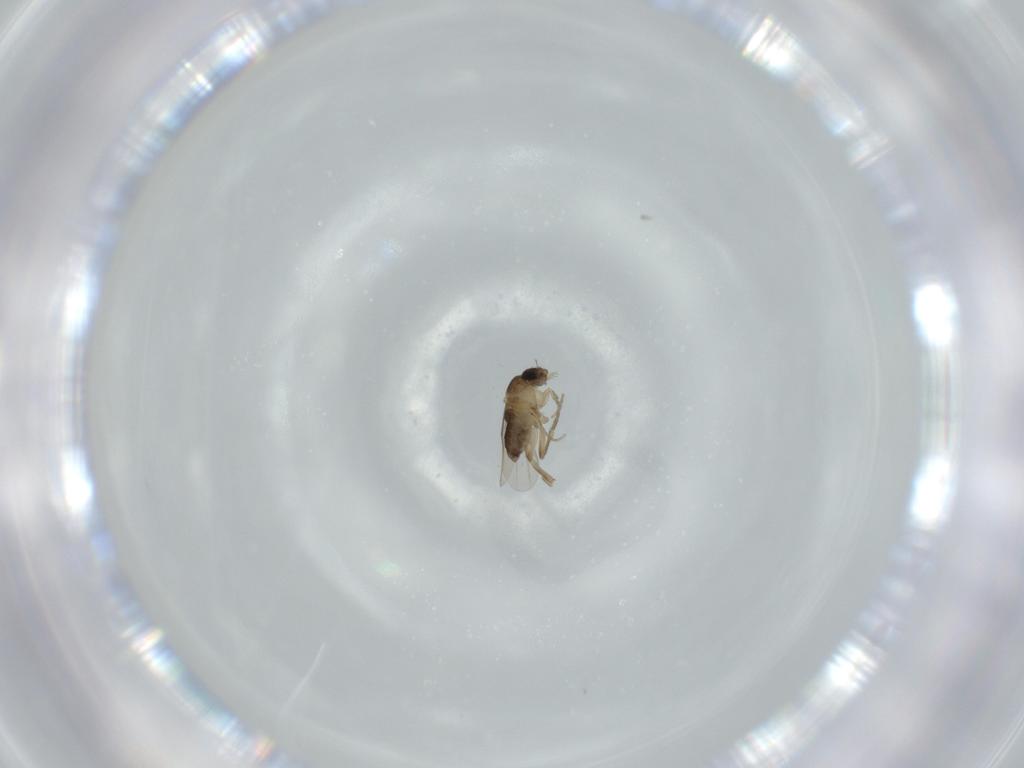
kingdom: Animalia
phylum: Arthropoda
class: Insecta
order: Diptera
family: Phoridae
